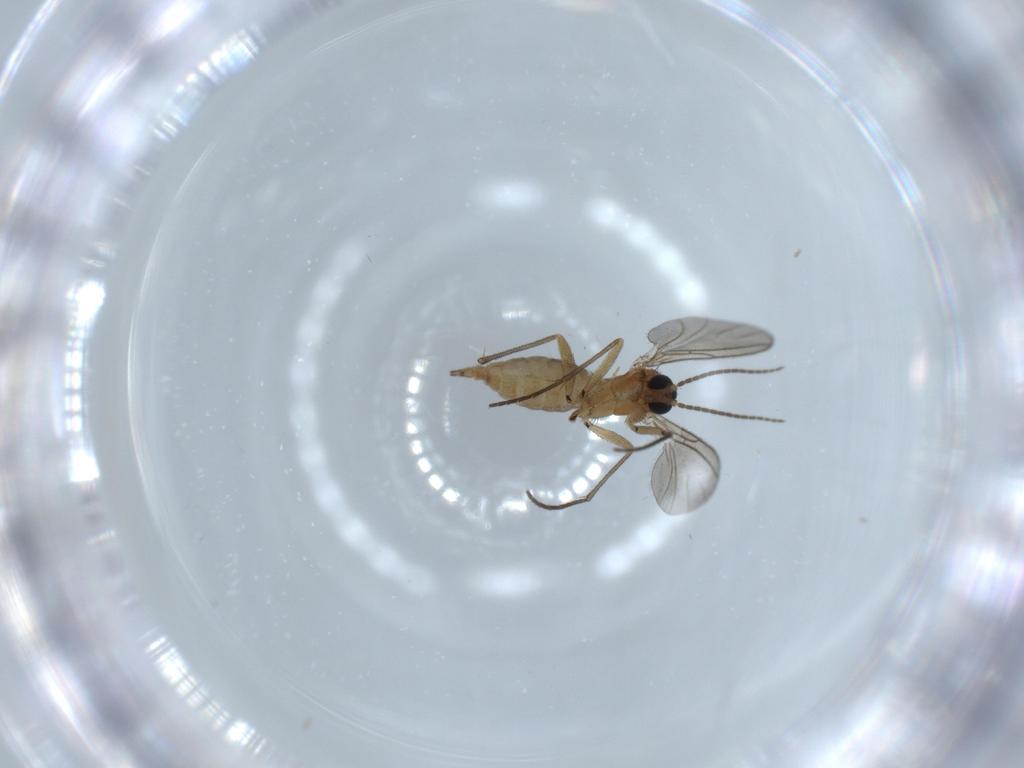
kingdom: Animalia
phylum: Arthropoda
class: Insecta
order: Diptera
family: Sciaridae
